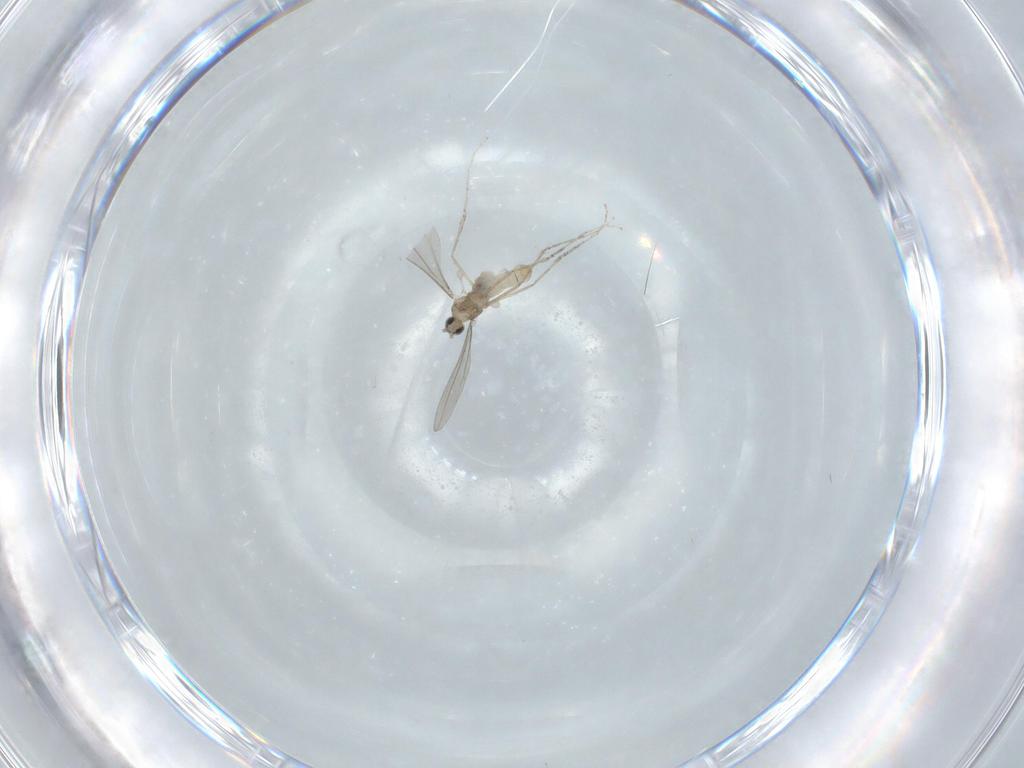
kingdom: Animalia
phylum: Arthropoda
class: Insecta
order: Diptera
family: Cecidomyiidae
